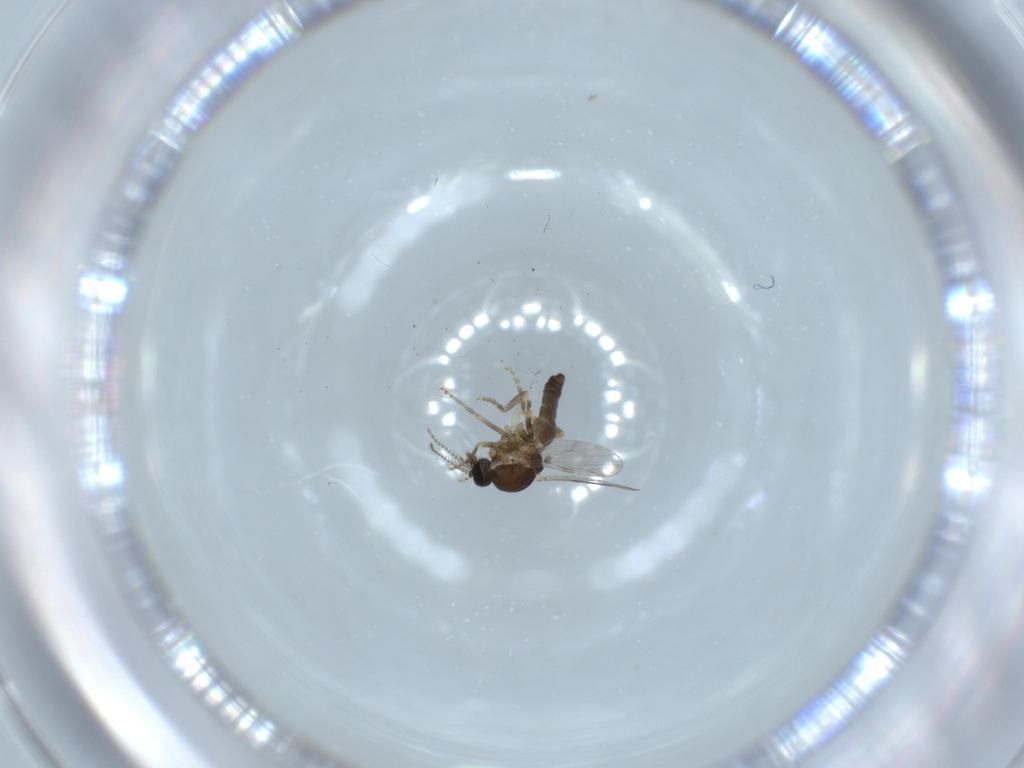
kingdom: Animalia
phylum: Arthropoda
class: Insecta
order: Diptera
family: Ceratopogonidae
